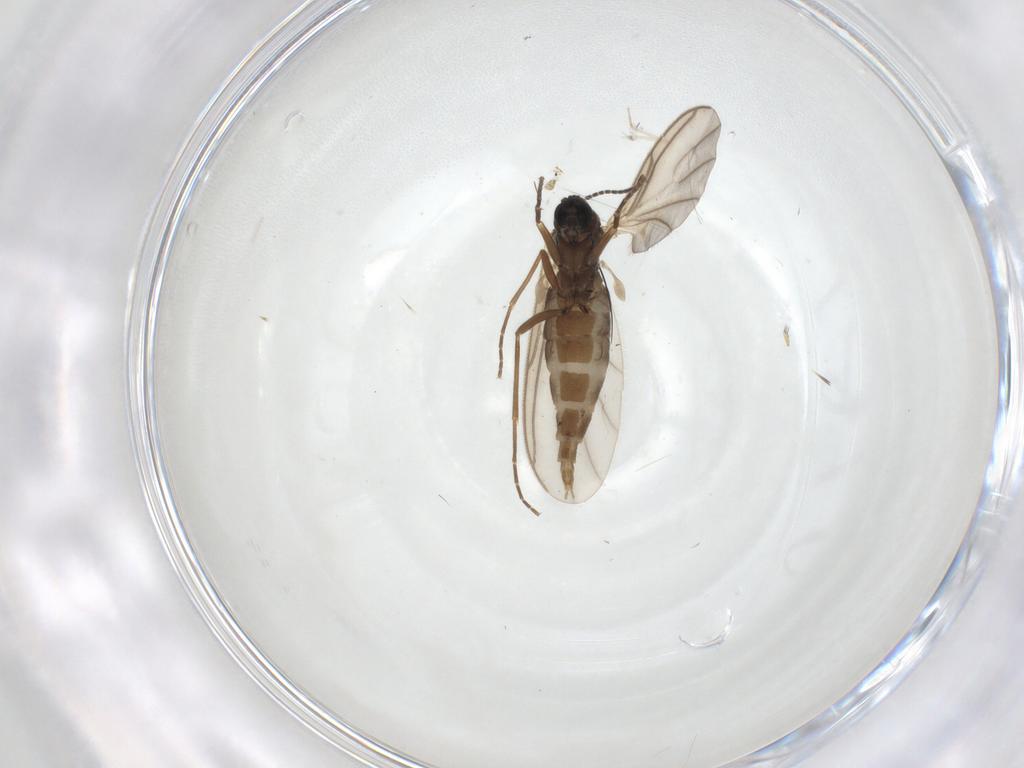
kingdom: Animalia
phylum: Arthropoda
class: Insecta
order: Diptera
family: Sciaridae
